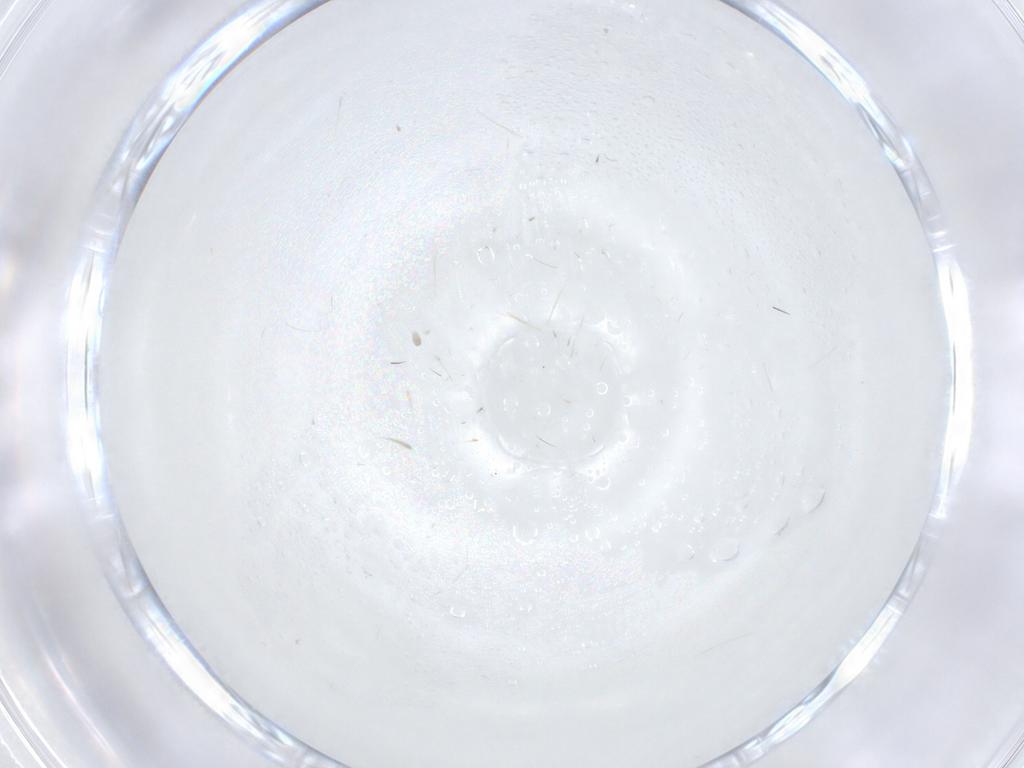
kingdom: Animalia
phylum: Arthropoda
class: Insecta
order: Diptera
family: Cecidomyiidae
